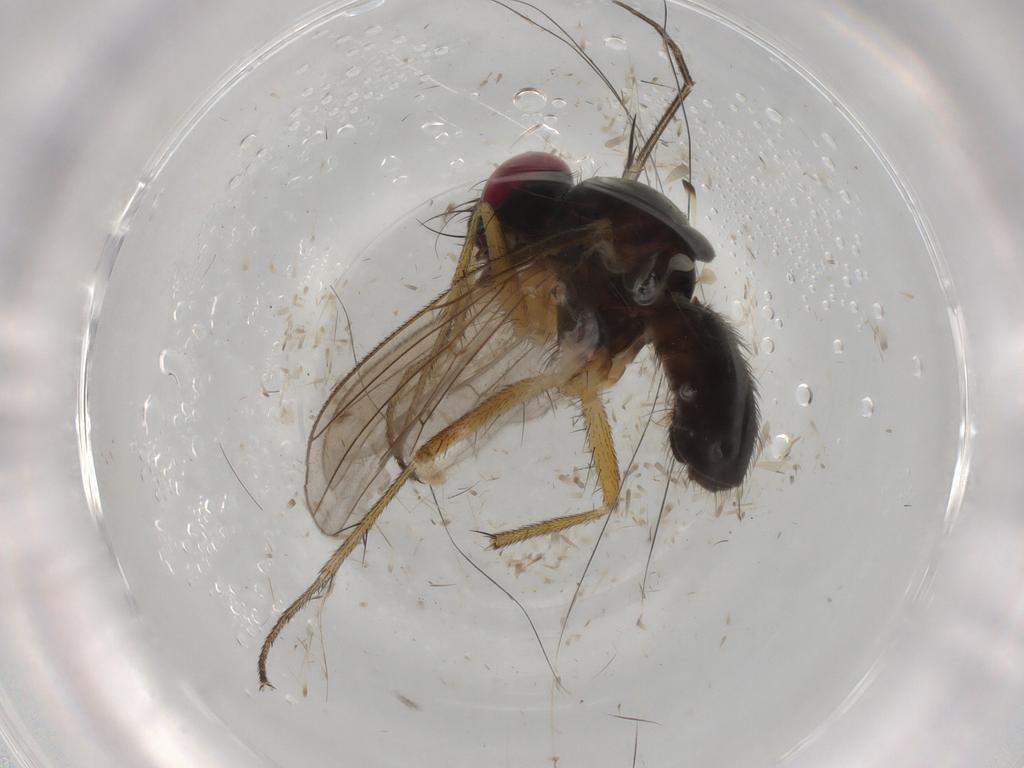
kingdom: Animalia
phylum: Arthropoda
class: Insecta
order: Diptera
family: Muscidae
